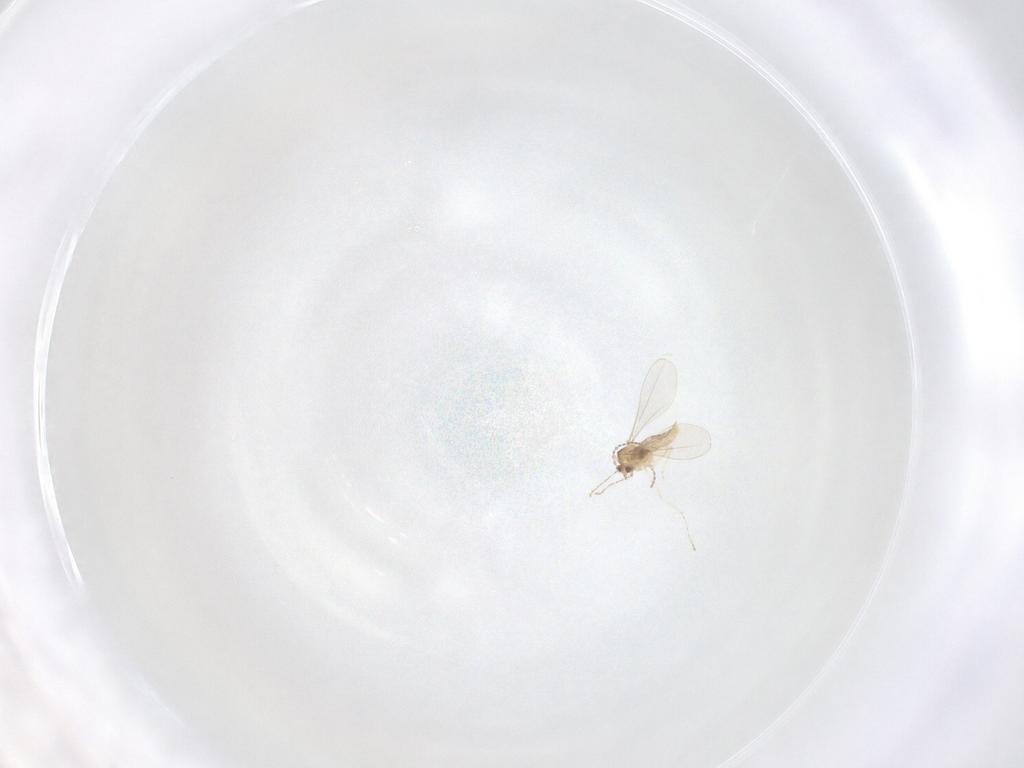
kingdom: Animalia
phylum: Arthropoda
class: Insecta
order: Diptera
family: Cecidomyiidae
